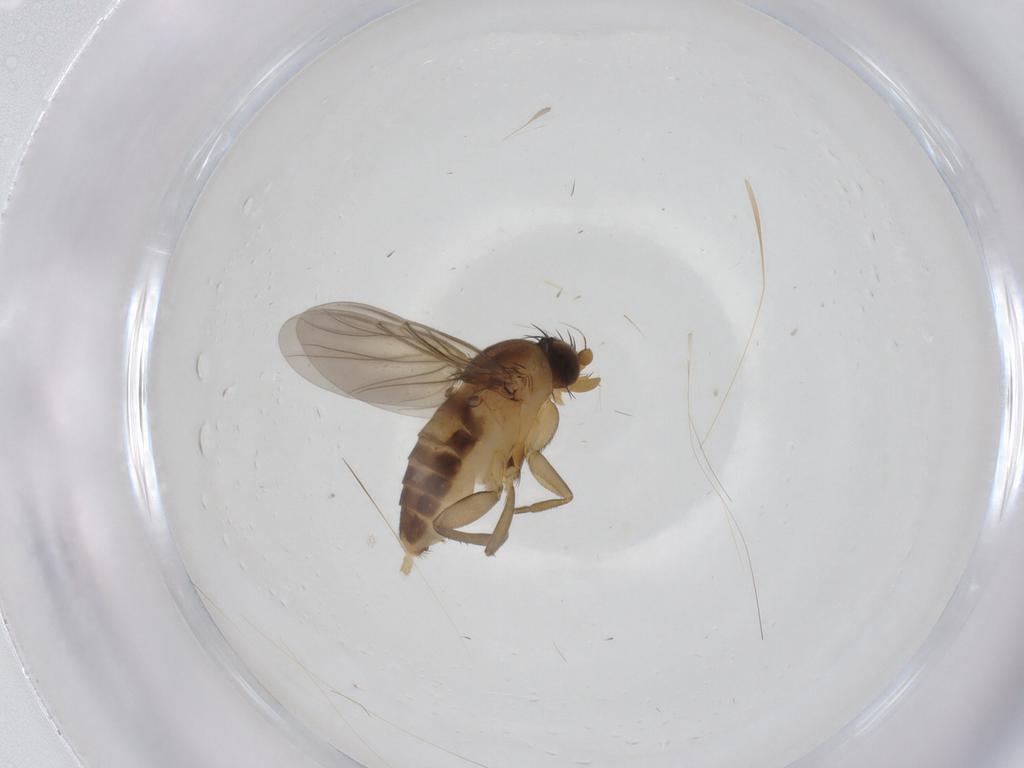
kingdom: Animalia
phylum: Arthropoda
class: Insecta
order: Diptera
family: Phoridae
